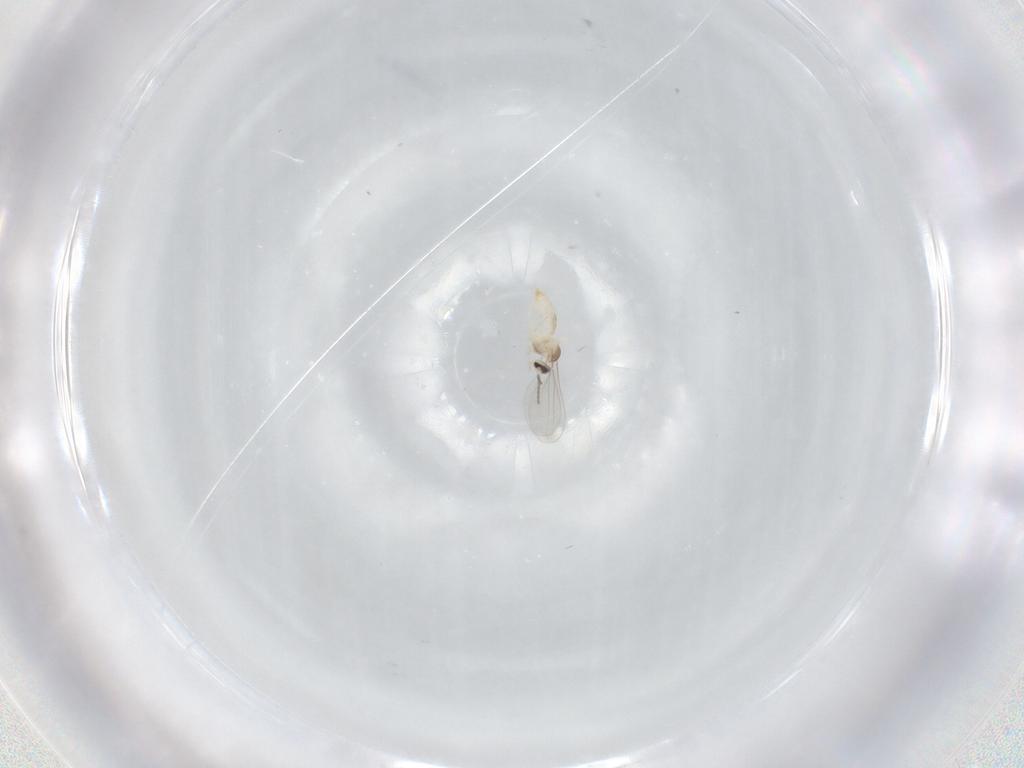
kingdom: Animalia
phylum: Arthropoda
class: Insecta
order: Diptera
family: Cecidomyiidae
